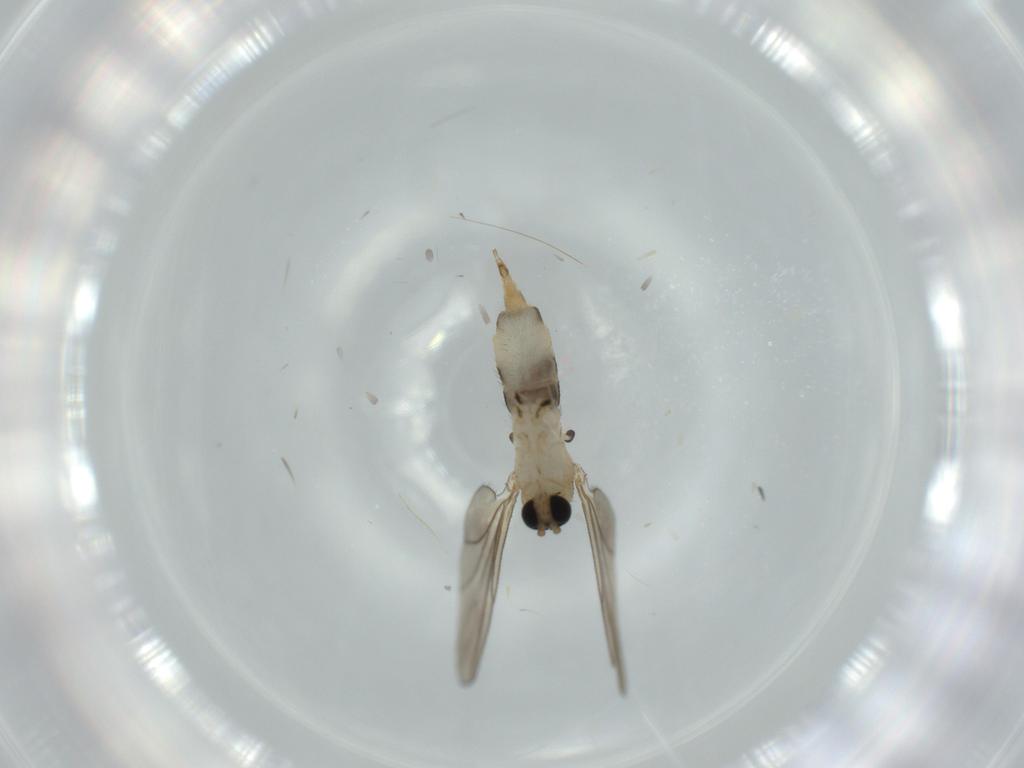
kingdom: Animalia
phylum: Arthropoda
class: Insecta
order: Diptera
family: Sciaridae
